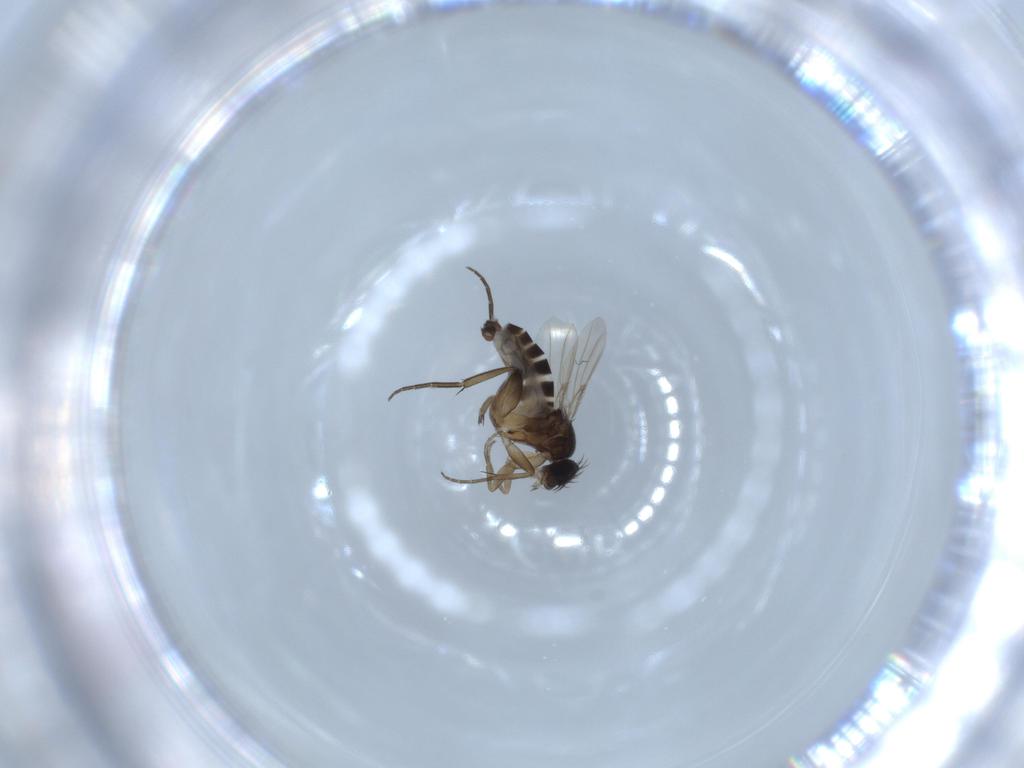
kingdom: Animalia
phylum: Arthropoda
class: Insecta
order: Diptera
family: Phoridae
